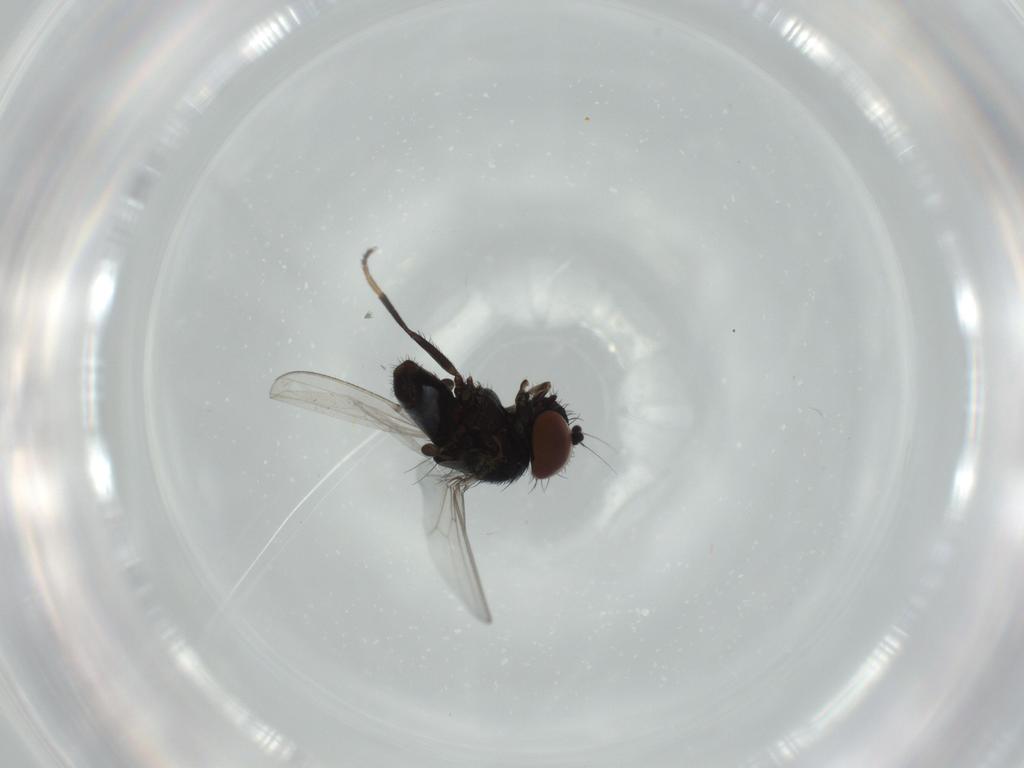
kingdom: Animalia
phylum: Arthropoda
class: Insecta
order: Diptera
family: Milichiidae
